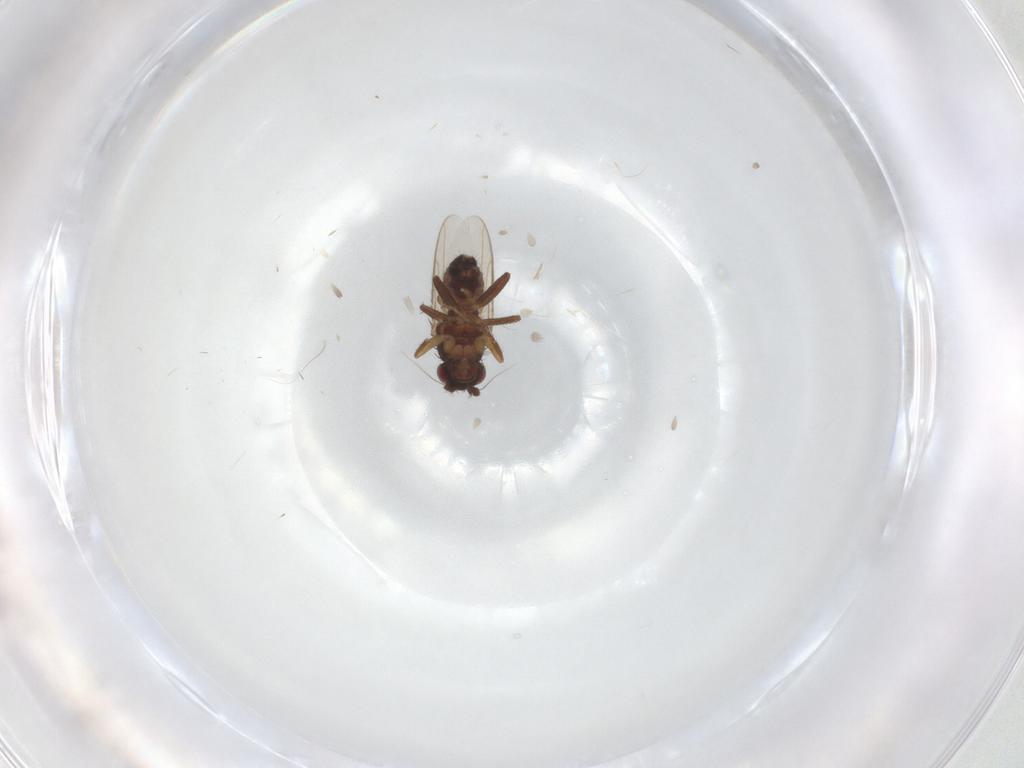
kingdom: Animalia
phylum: Arthropoda
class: Insecta
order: Diptera
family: Sphaeroceridae
